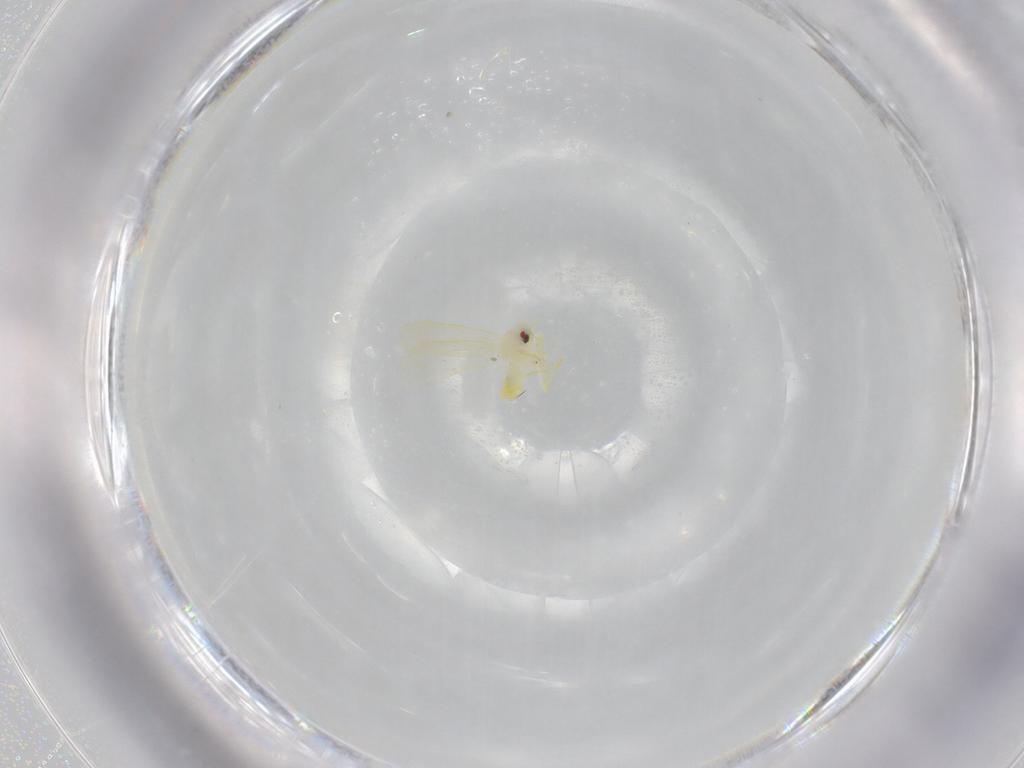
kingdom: Animalia
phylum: Arthropoda
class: Insecta
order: Hemiptera
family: Aleyrodidae
